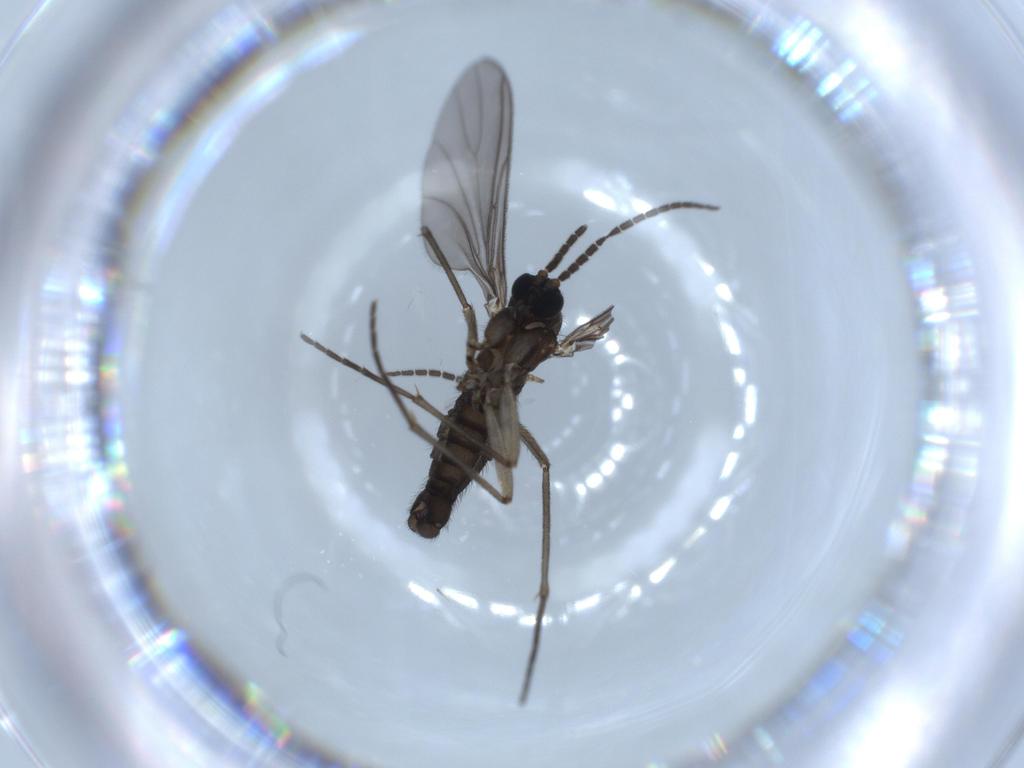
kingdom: Animalia
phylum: Arthropoda
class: Insecta
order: Diptera
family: Sciaridae
